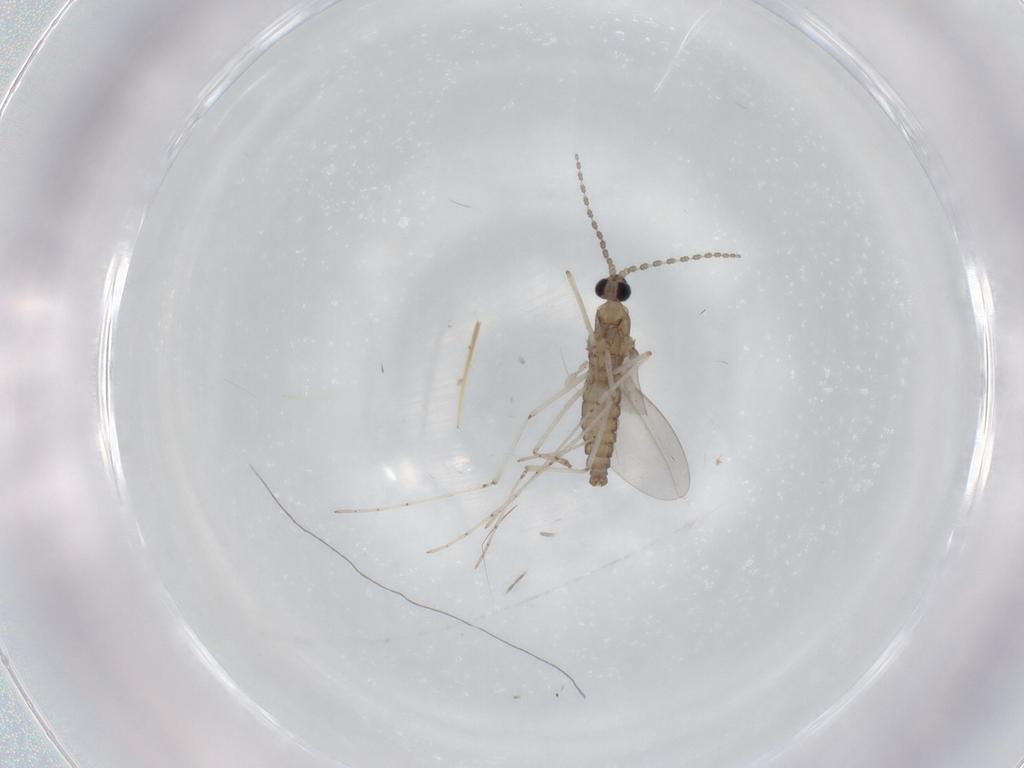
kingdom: Animalia
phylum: Arthropoda
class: Insecta
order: Diptera
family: Cecidomyiidae
